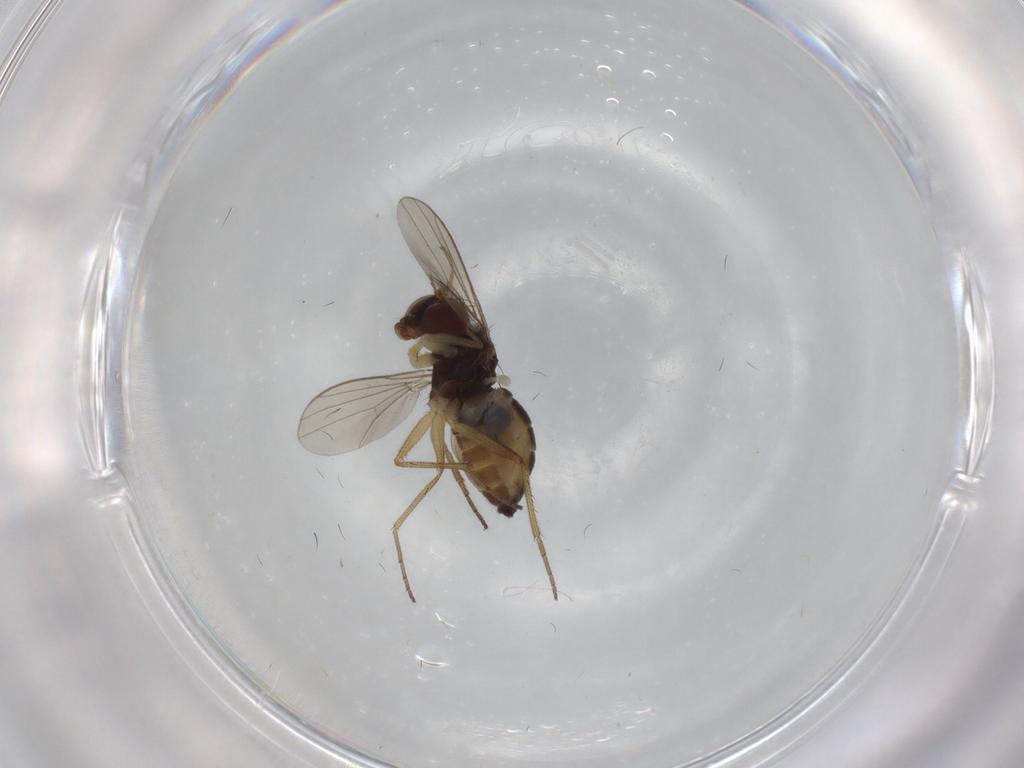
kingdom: Animalia
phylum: Arthropoda
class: Insecta
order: Diptera
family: Dolichopodidae
